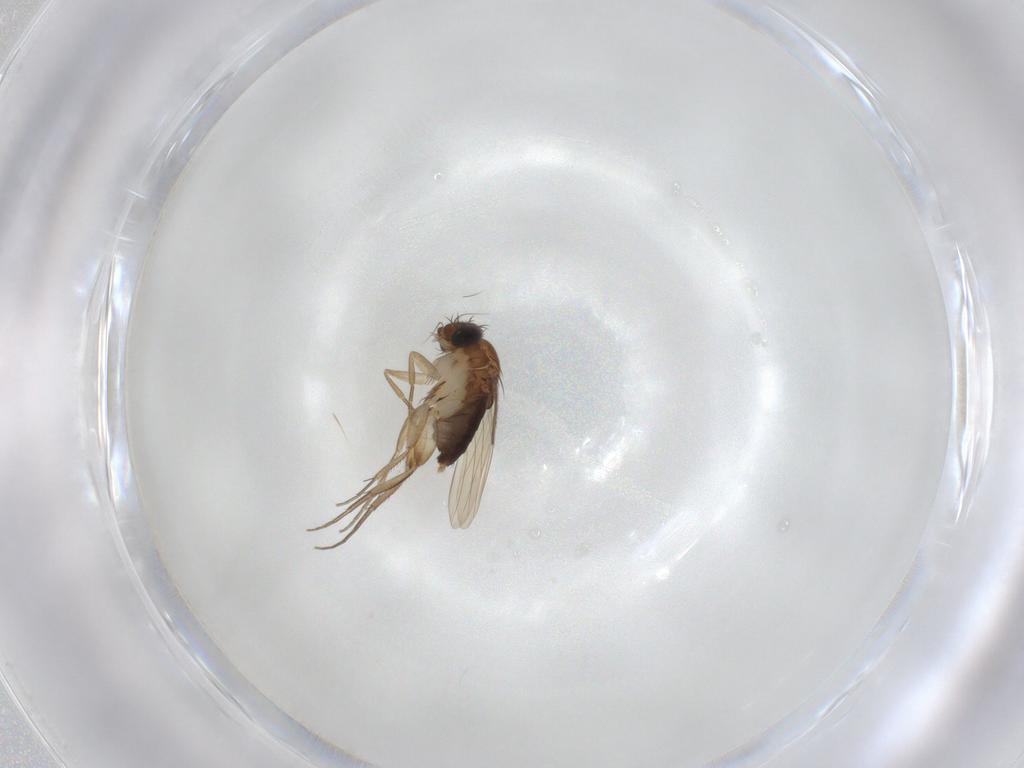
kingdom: Animalia
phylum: Arthropoda
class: Insecta
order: Diptera
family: Phoridae
